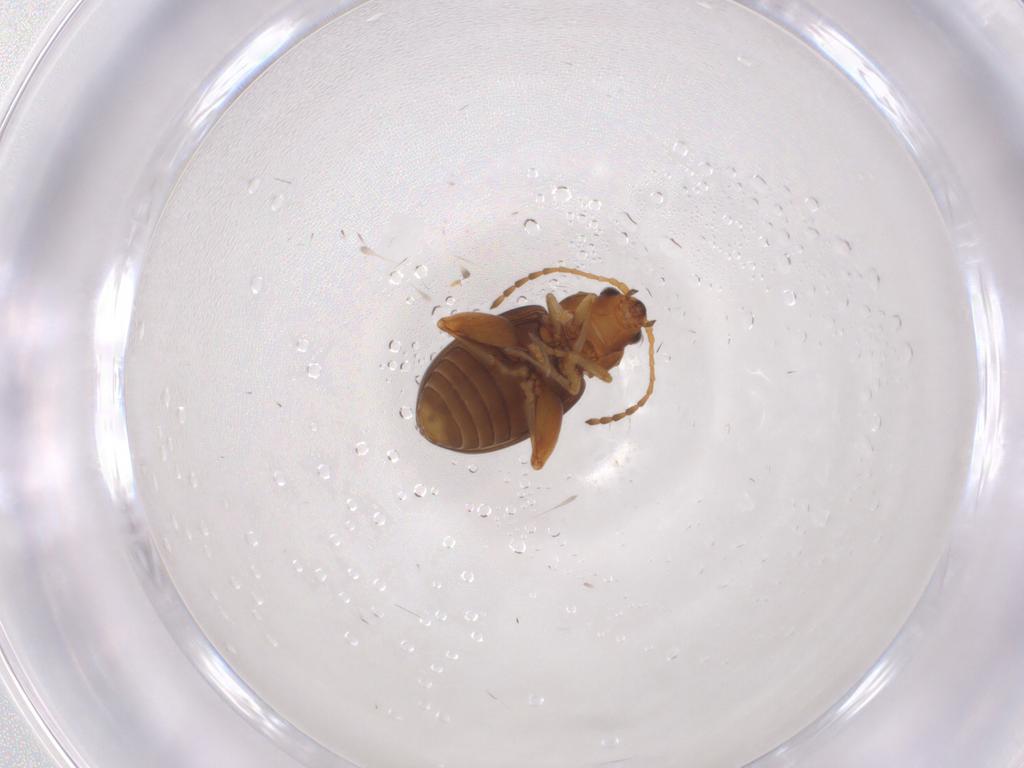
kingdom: Animalia
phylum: Arthropoda
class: Insecta
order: Coleoptera
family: Chrysomelidae
